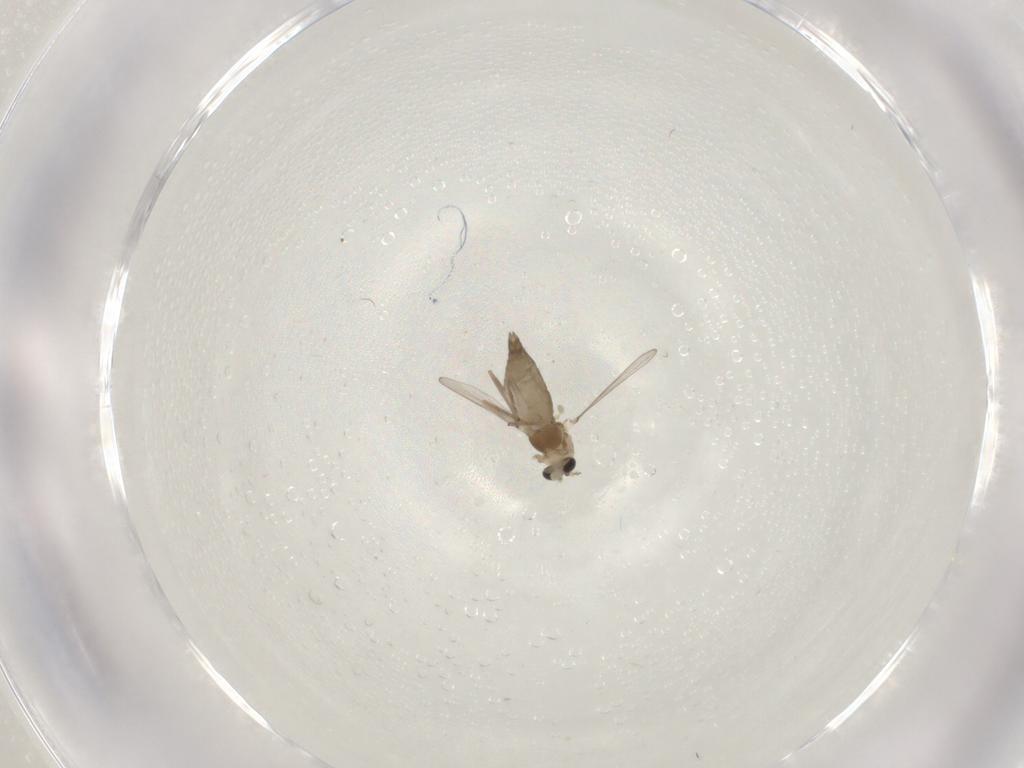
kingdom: Animalia
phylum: Arthropoda
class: Insecta
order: Diptera
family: Chironomidae
